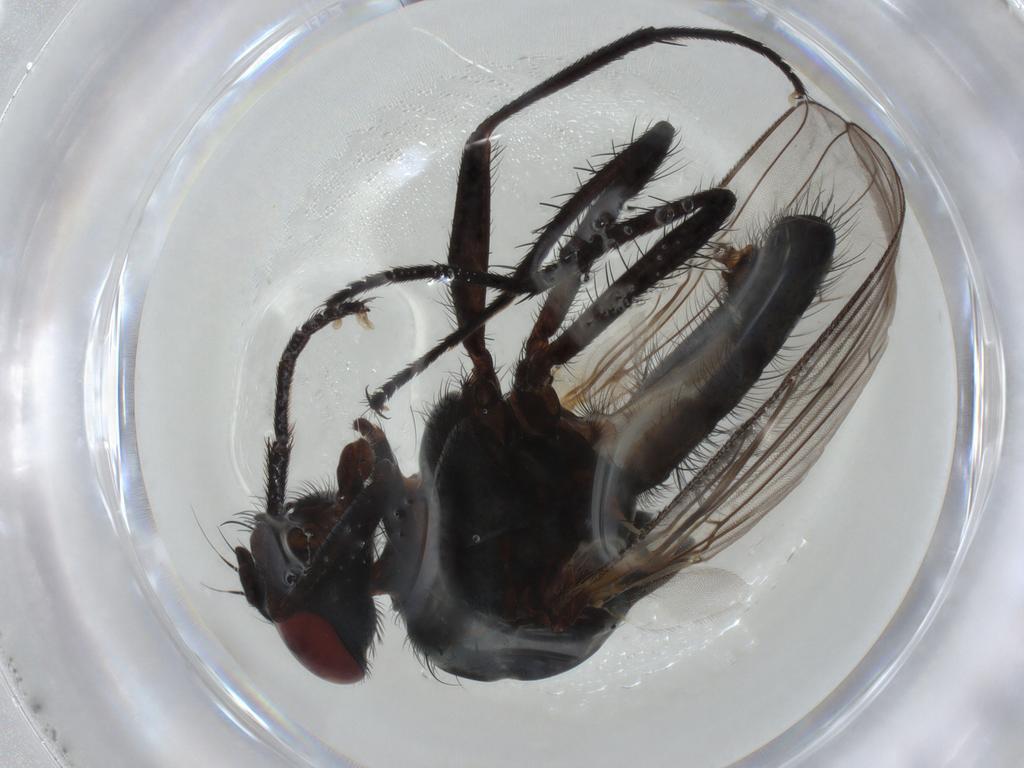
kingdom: Animalia
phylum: Arthropoda
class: Insecta
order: Diptera
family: Anthomyiidae
